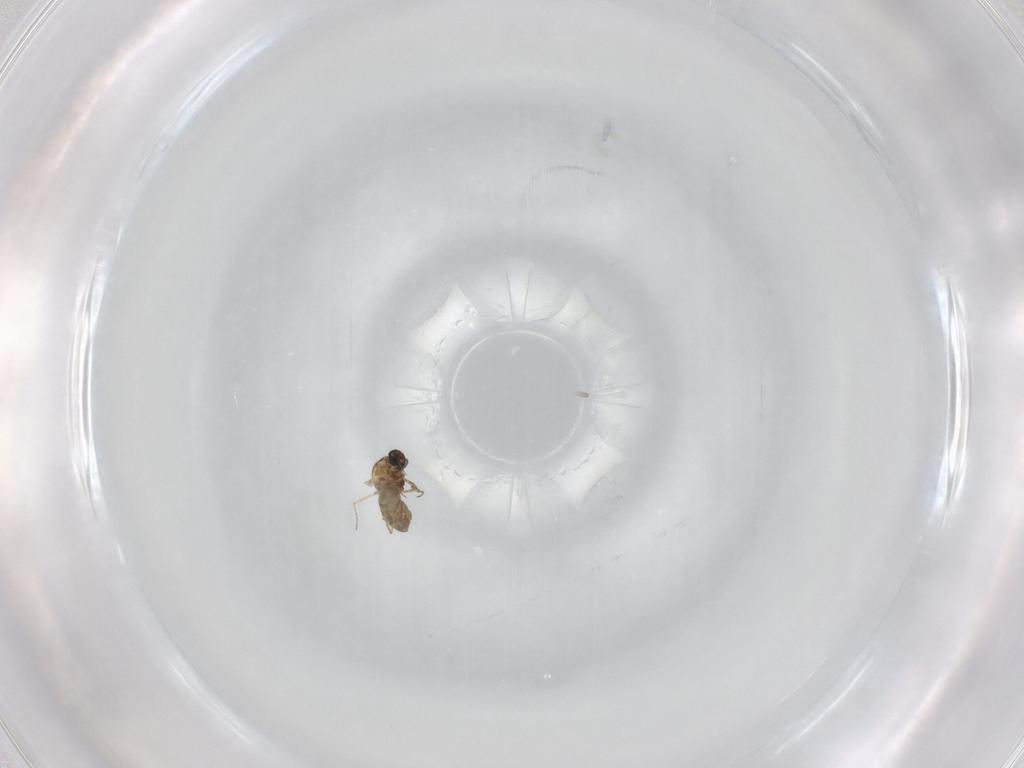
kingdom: Animalia
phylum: Arthropoda
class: Insecta
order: Diptera
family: Ceratopogonidae
